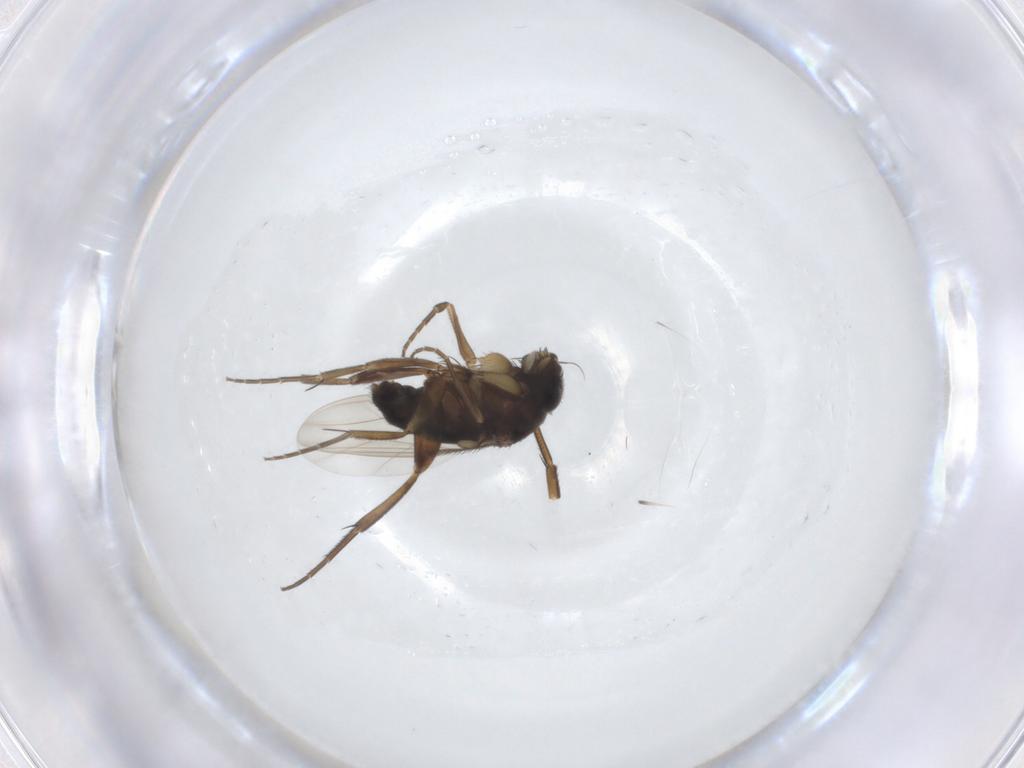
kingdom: Animalia
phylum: Arthropoda
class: Insecta
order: Diptera
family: Phoridae
